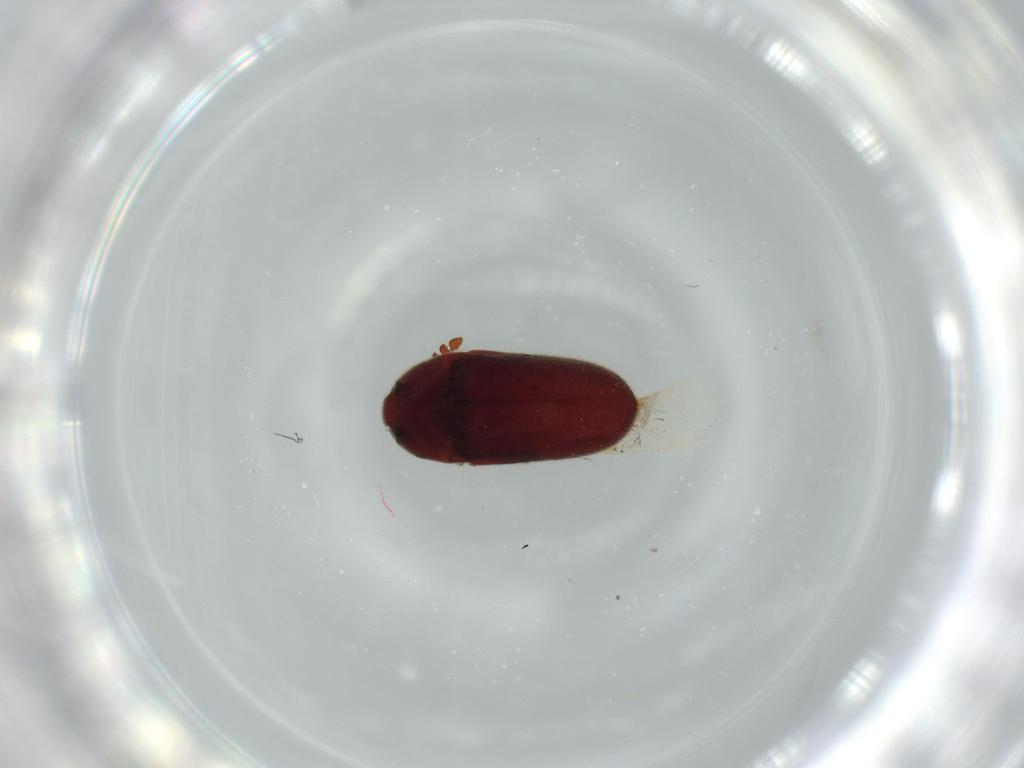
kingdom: Animalia
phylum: Arthropoda
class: Insecta
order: Coleoptera
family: Throscidae
